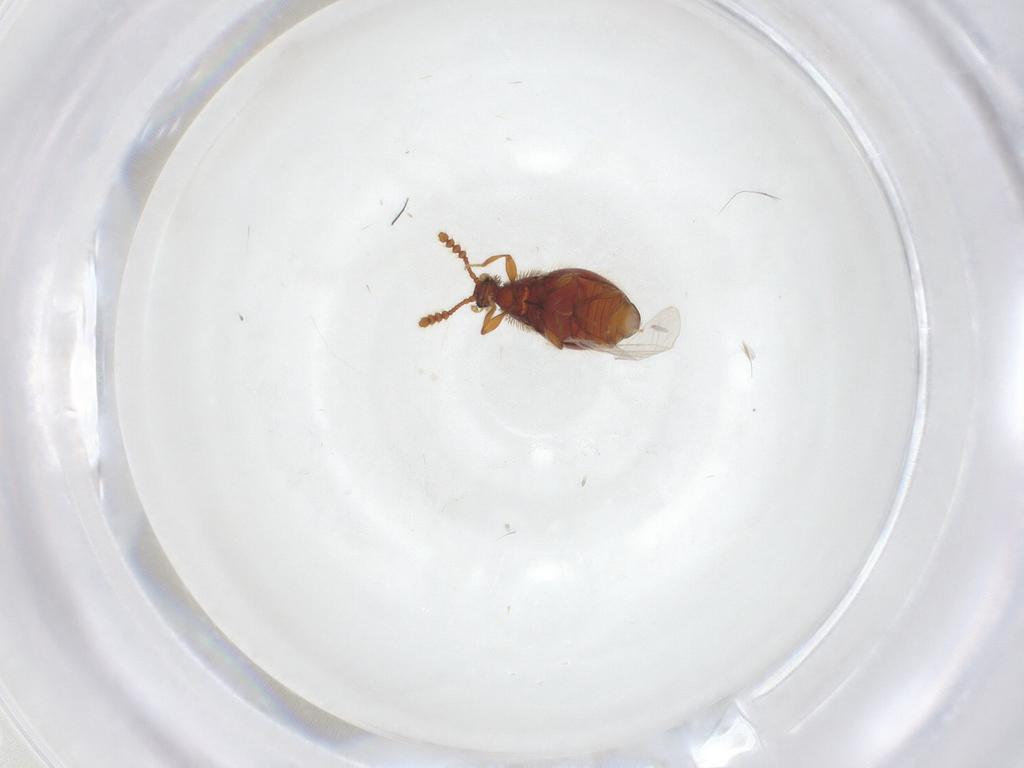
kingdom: Animalia
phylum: Arthropoda
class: Insecta
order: Coleoptera
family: Staphylinidae
